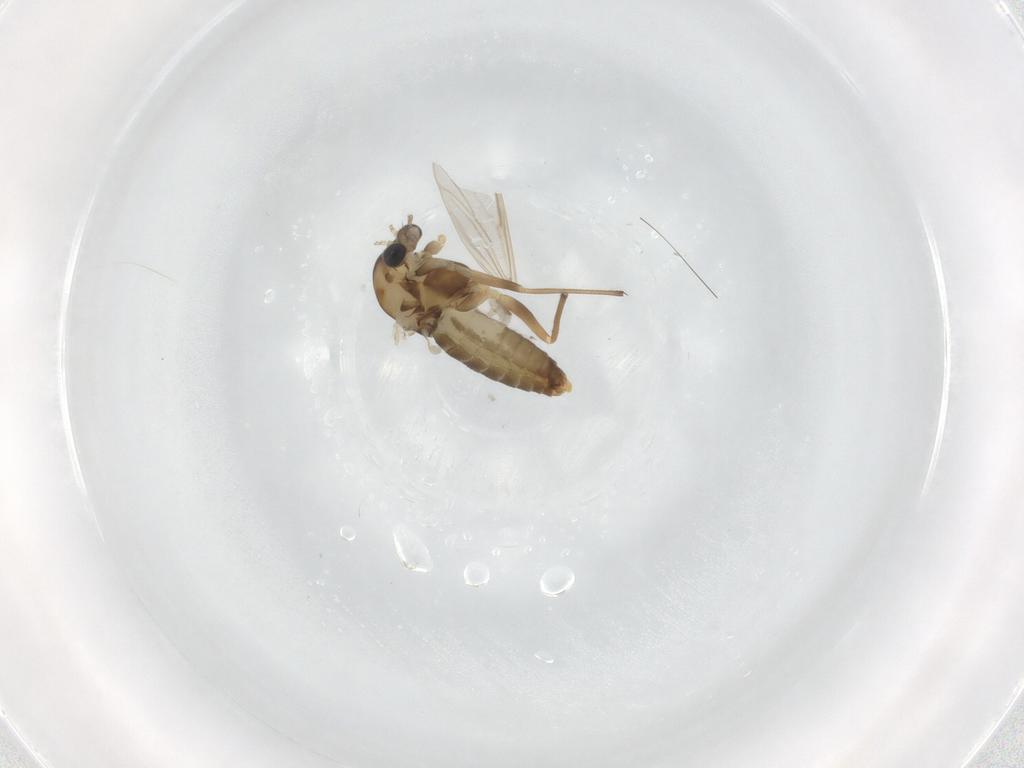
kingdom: Animalia
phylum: Arthropoda
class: Insecta
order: Diptera
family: Chironomidae
